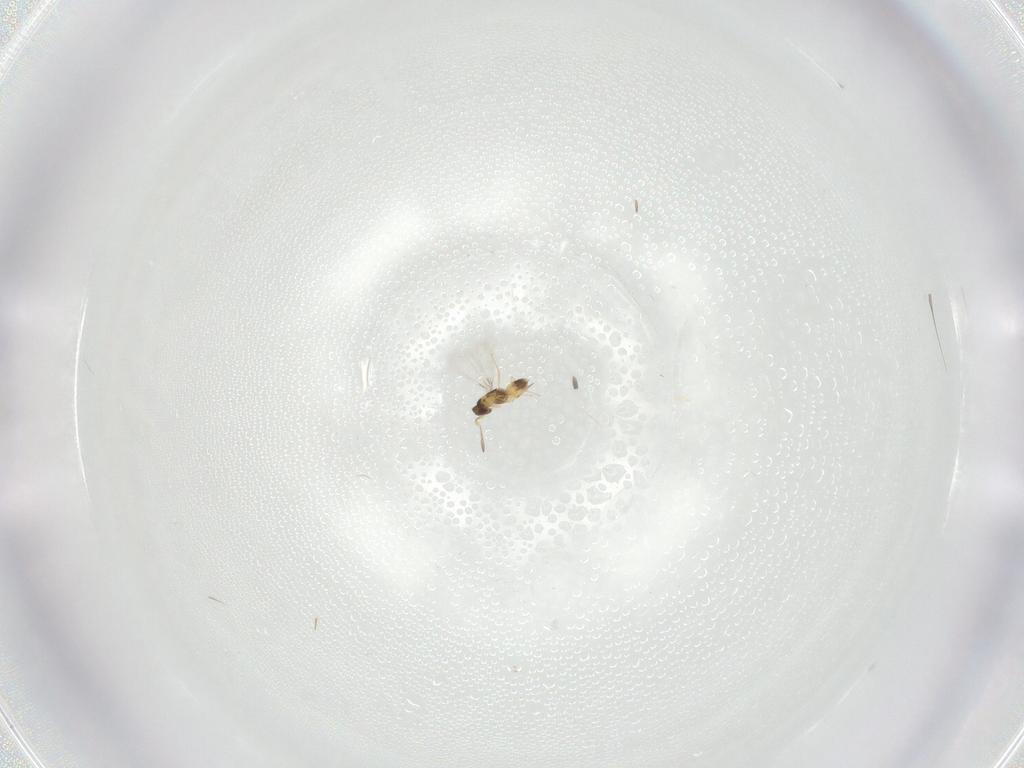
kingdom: Animalia
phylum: Arthropoda
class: Insecta
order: Hymenoptera
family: Mymaridae
